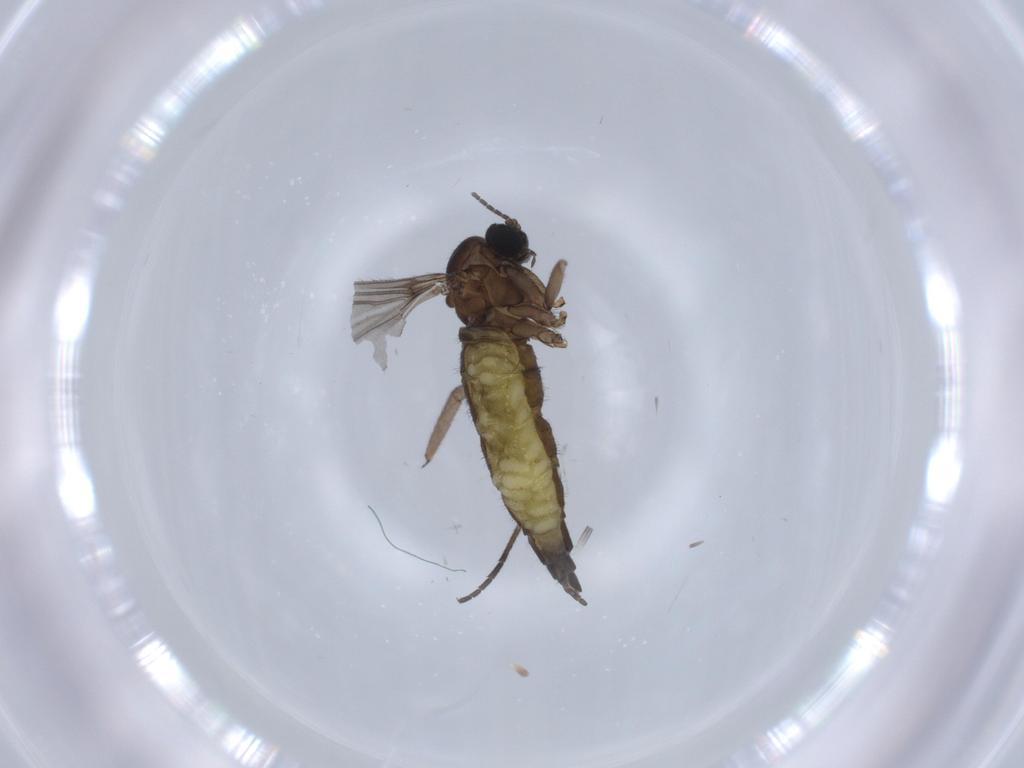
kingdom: Animalia
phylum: Arthropoda
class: Insecta
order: Diptera
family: Sciaridae
